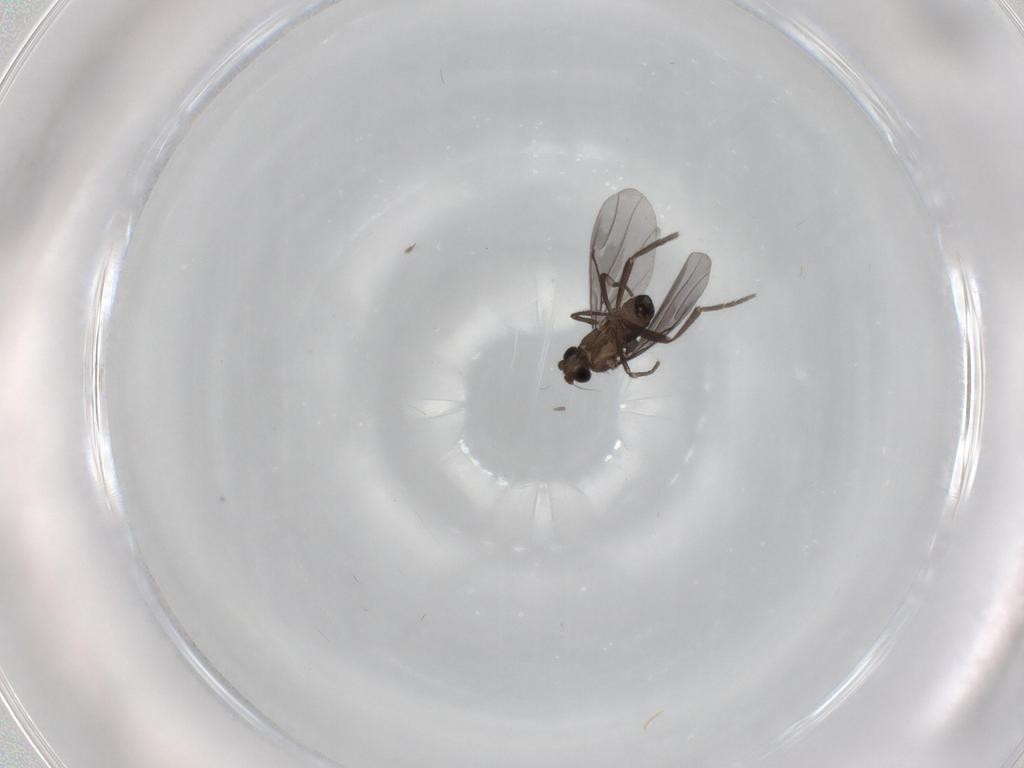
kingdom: Animalia
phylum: Arthropoda
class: Insecta
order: Diptera
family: Phoridae
